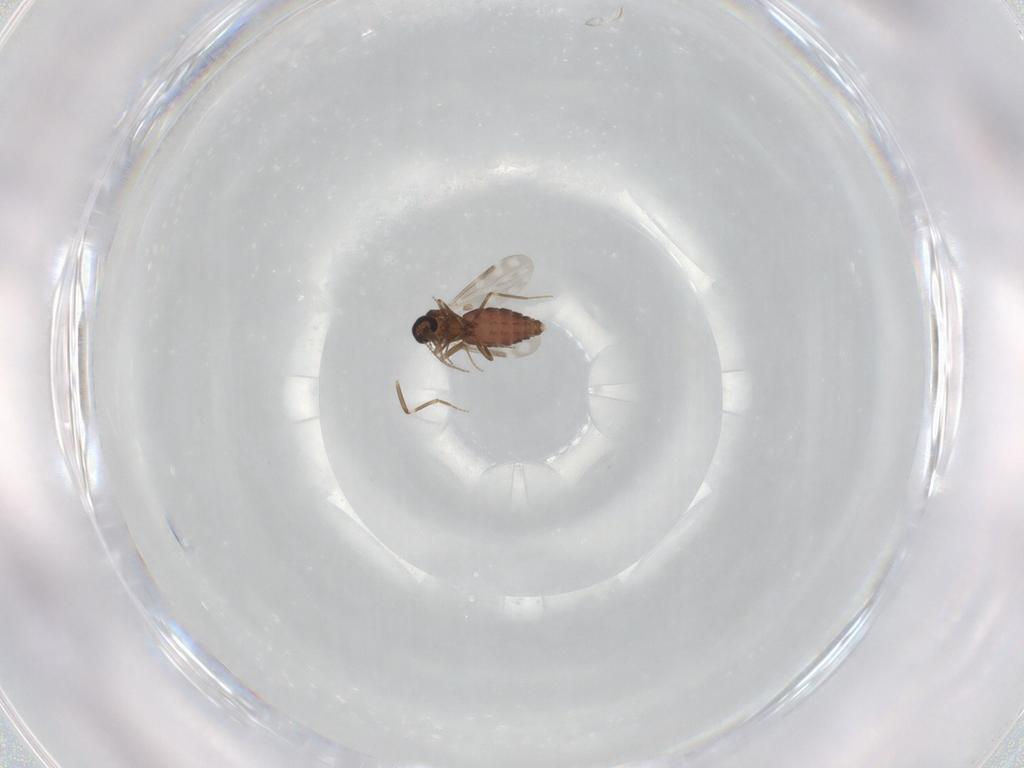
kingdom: Animalia
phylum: Arthropoda
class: Insecta
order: Diptera
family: Ceratopogonidae
